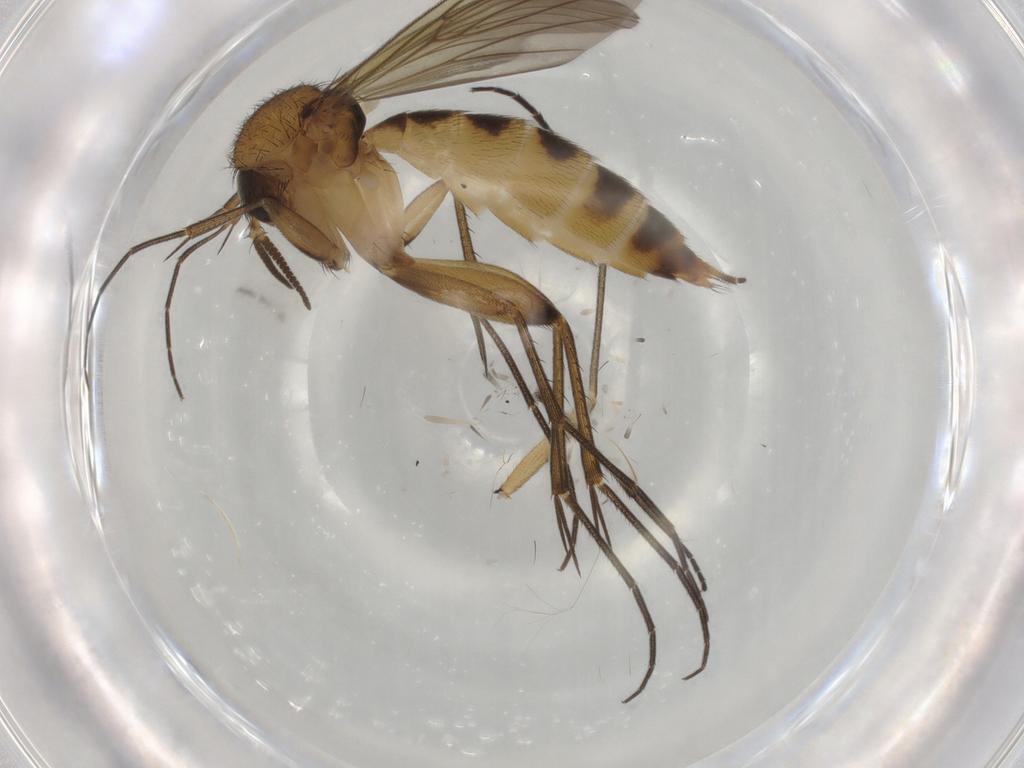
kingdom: Animalia
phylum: Arthropoda
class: Insecta
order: Diptera
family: Mycetophilidae
